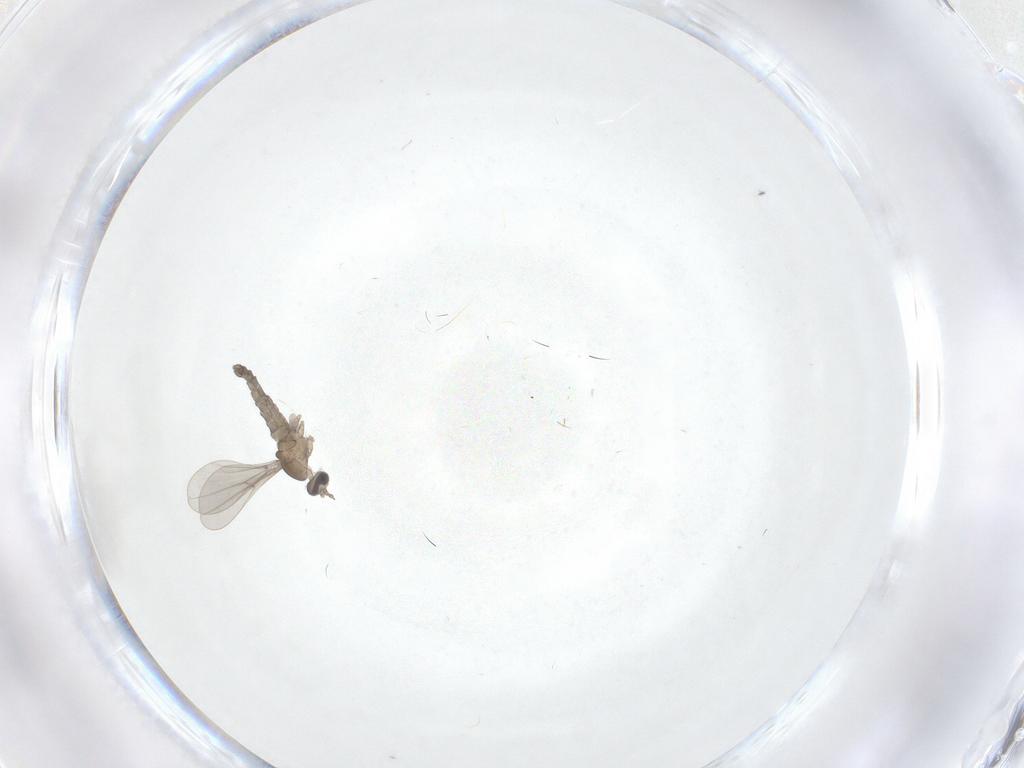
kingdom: Animalia
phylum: Arthropoda
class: Insecta
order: Diptera
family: Cecidomyiidae
